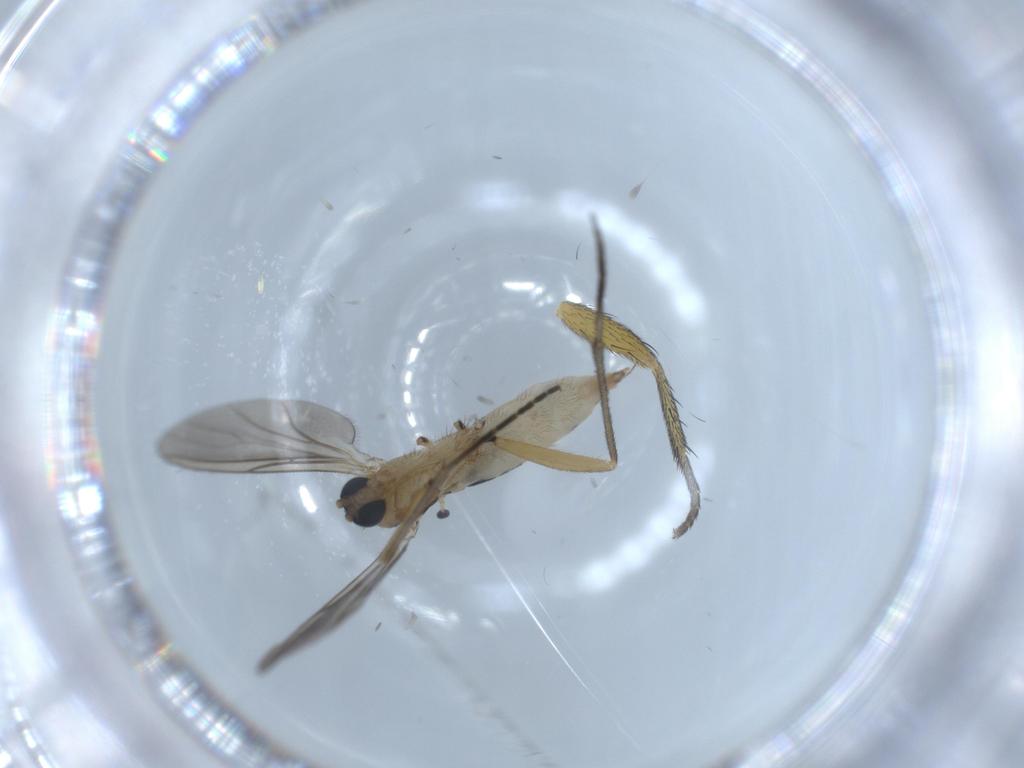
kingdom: Animalia
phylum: Arthropoda
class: Insecta
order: Diptera
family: Sciaridae
